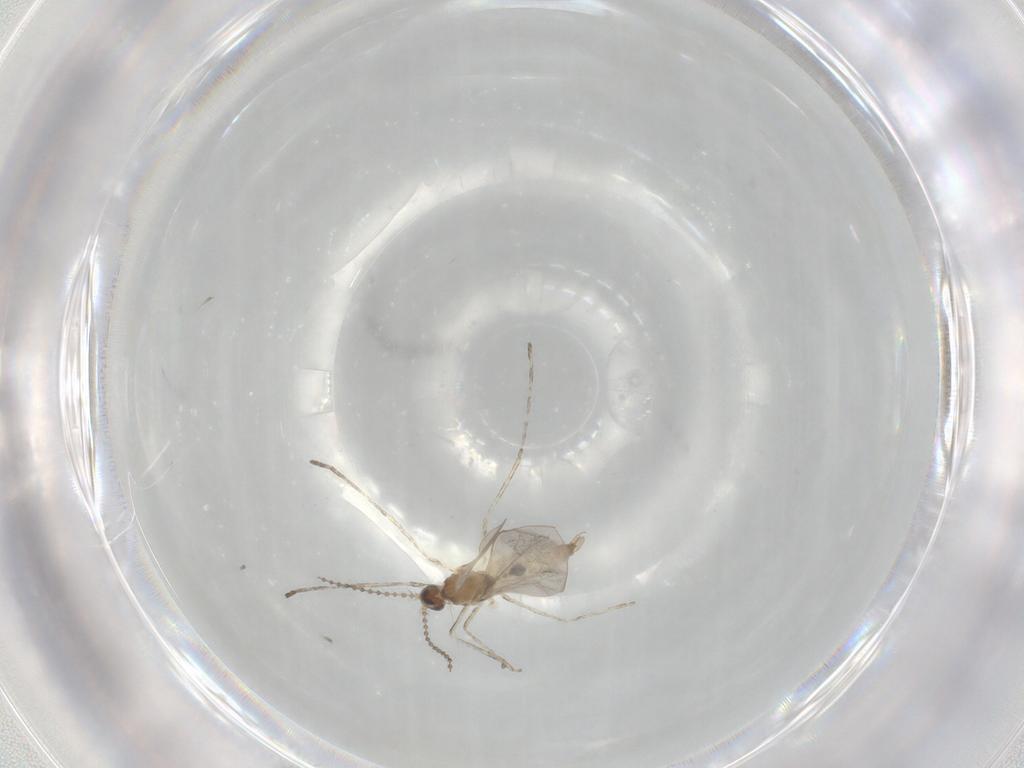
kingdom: Animalia
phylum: Arthropoda
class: Insecta
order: Diptera
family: Cecidomyiidae
